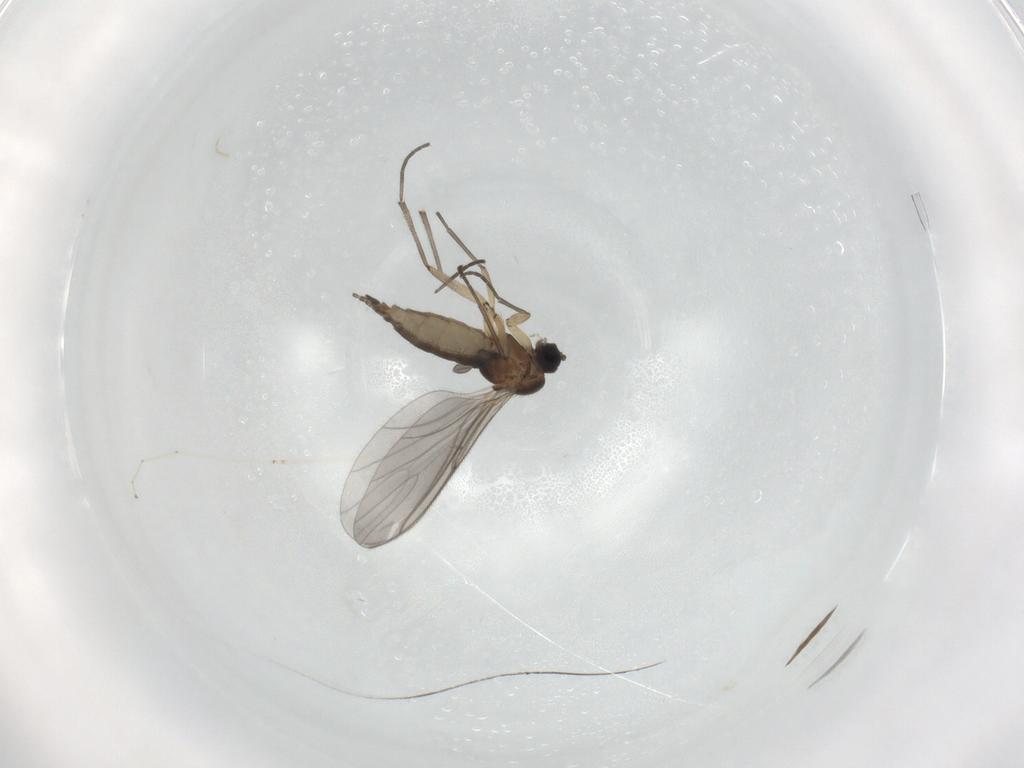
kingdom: Animalia
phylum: Arthropoda
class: Insecta
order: Diptera
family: Sciaridae
